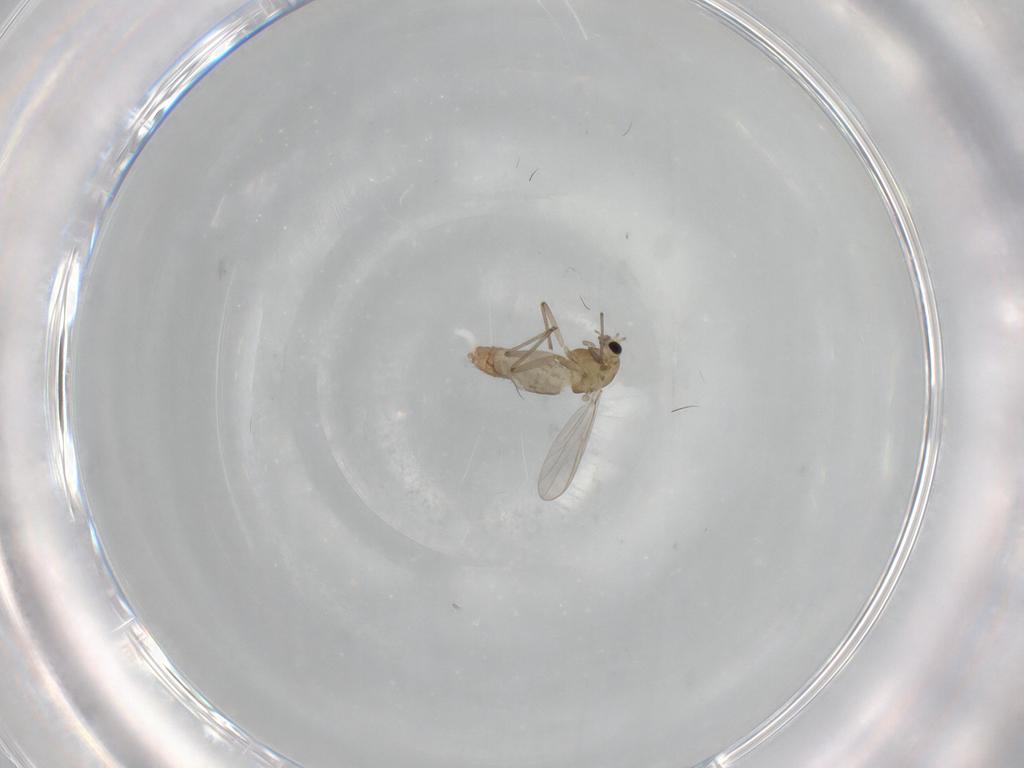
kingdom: Animalia
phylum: Arthropoda
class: Insecta
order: Diptera
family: Chironomidae
